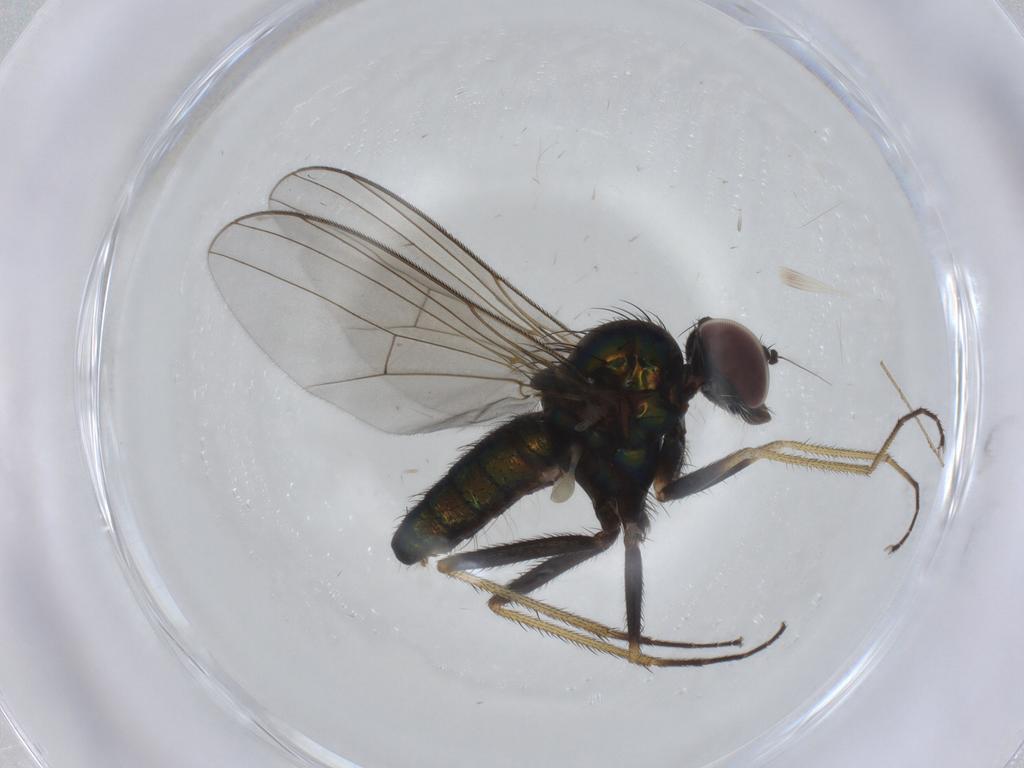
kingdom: Animalia
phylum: Arthropoda
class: Insecta
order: Diptera
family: Dolichopodidae
